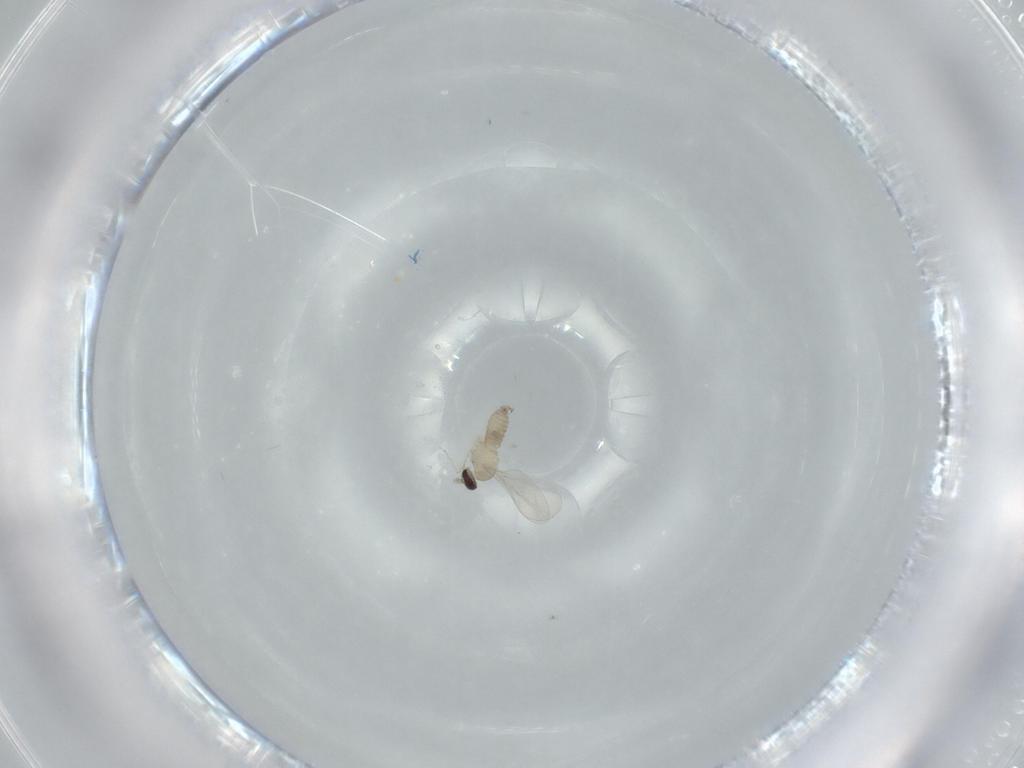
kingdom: Animalia
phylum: Arthropoda
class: Insecta
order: Diptera
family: Cecidomyiidae
